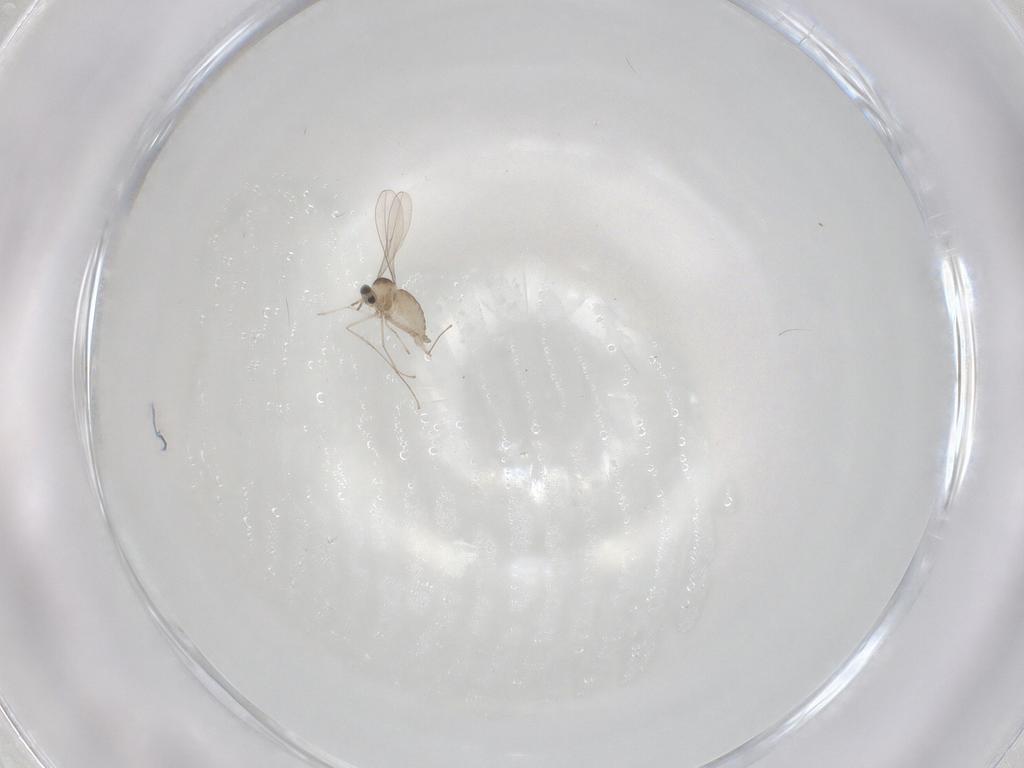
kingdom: Animalia
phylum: Arthropoda
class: Insecta
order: Diptera
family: Cecidomyiidae
